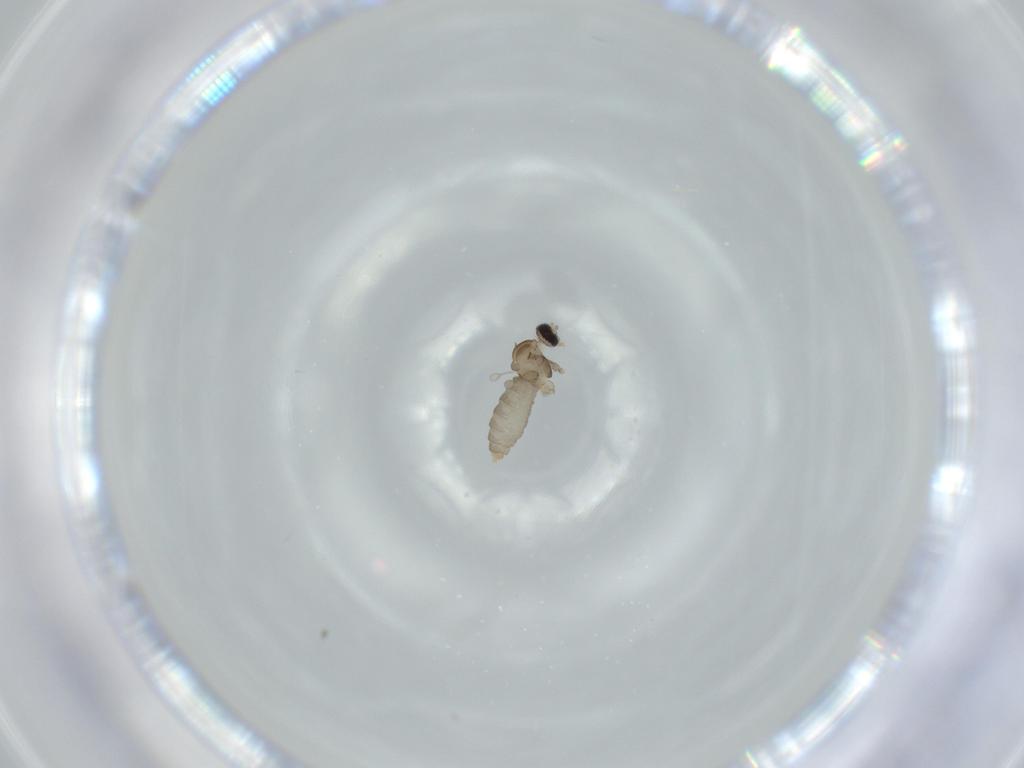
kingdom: Animalia
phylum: Arthropoda
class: Insecta
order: Diptera
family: Cecidomyiidae
